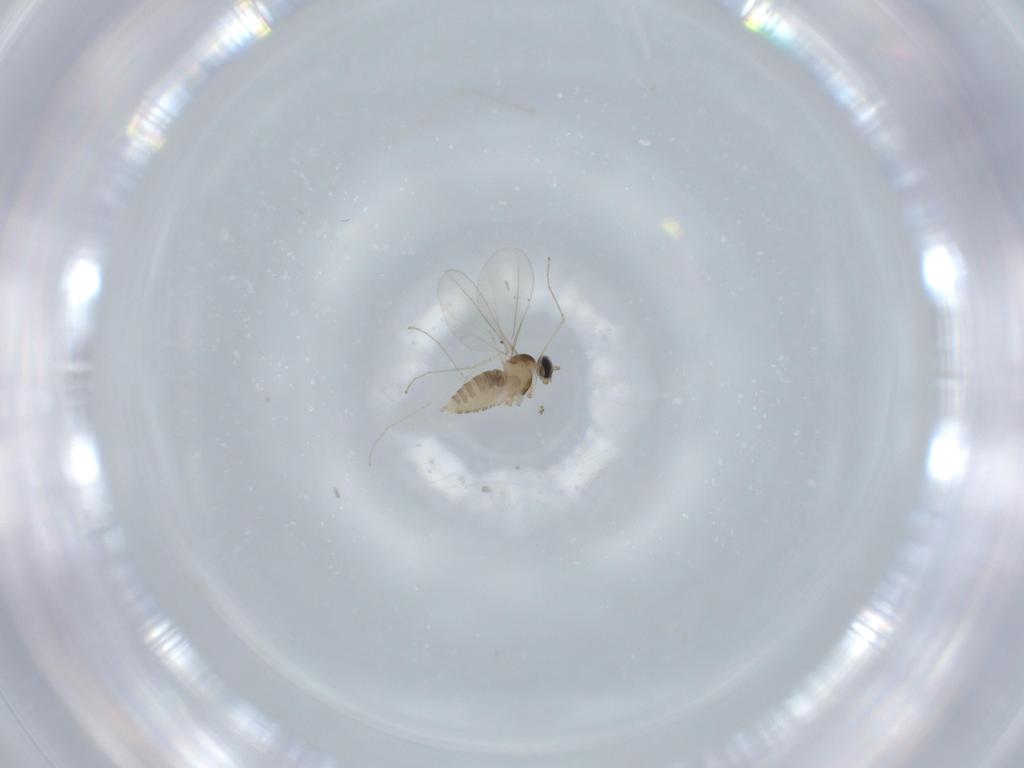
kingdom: Animalia
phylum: Arthropoda
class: Insecta
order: Diptera
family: Cecidomyiidae
